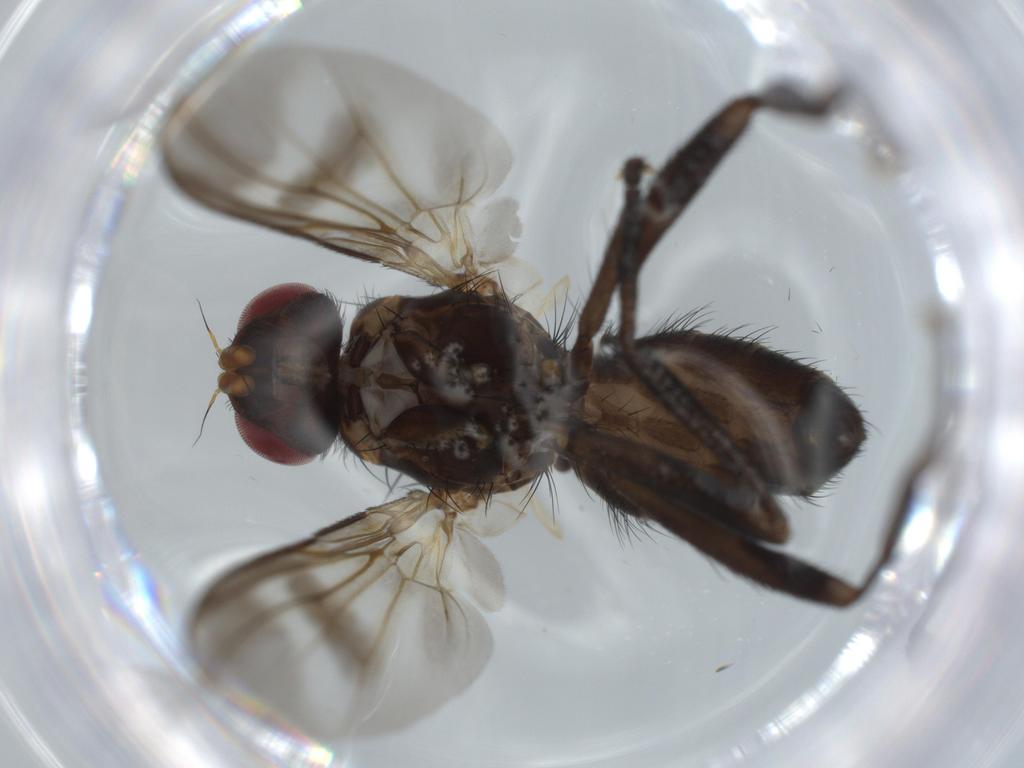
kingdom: Animalia
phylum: Arthropoda
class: Insecta
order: Diptera
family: Calliphoridae
